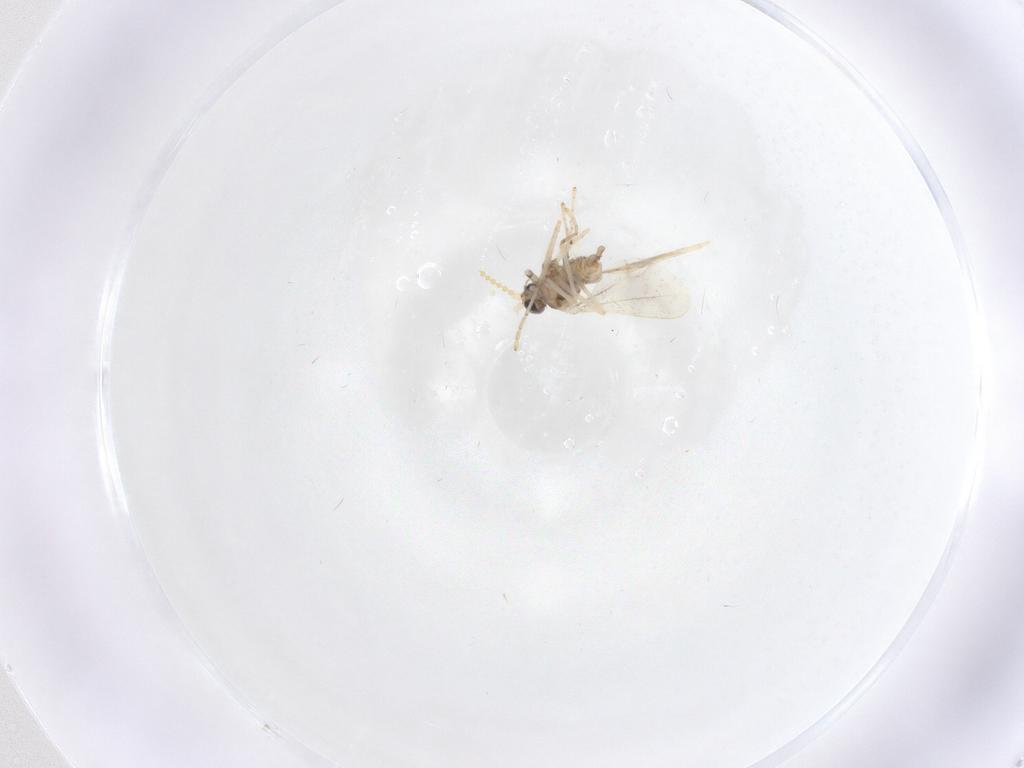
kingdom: Animalia
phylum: Arthropoda
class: Insecta
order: Diptera
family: Cecidomyiidae
